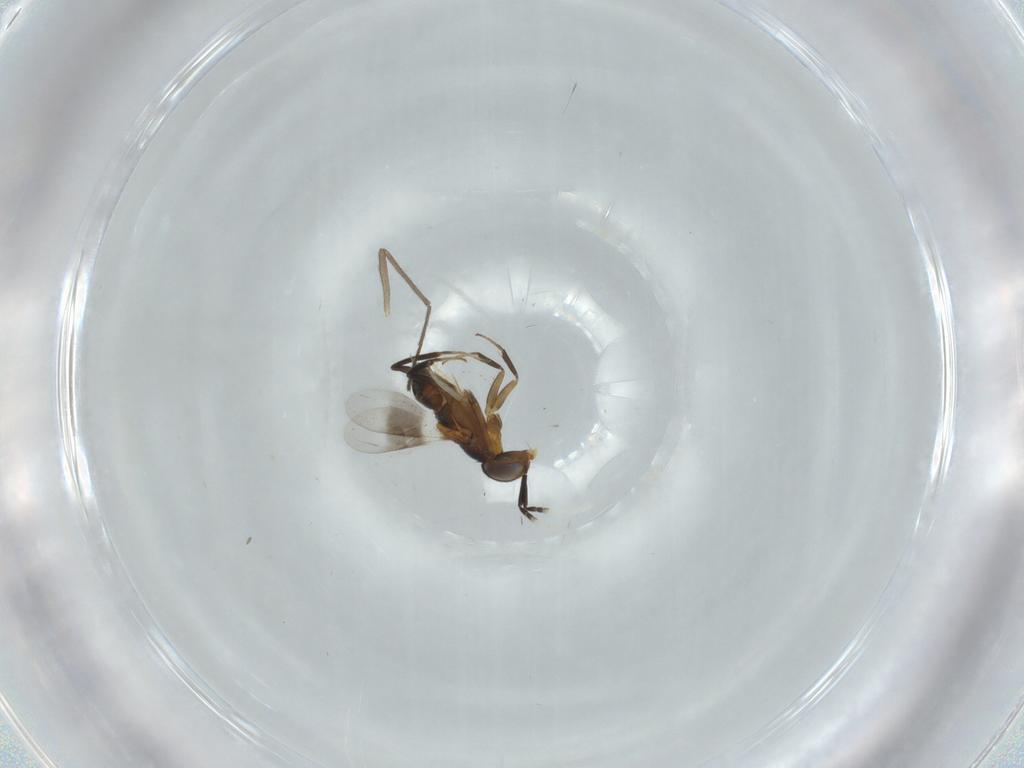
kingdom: Animalia
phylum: Arthropoda
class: Insecta
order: Hymenoptera
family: Encyrtidae
